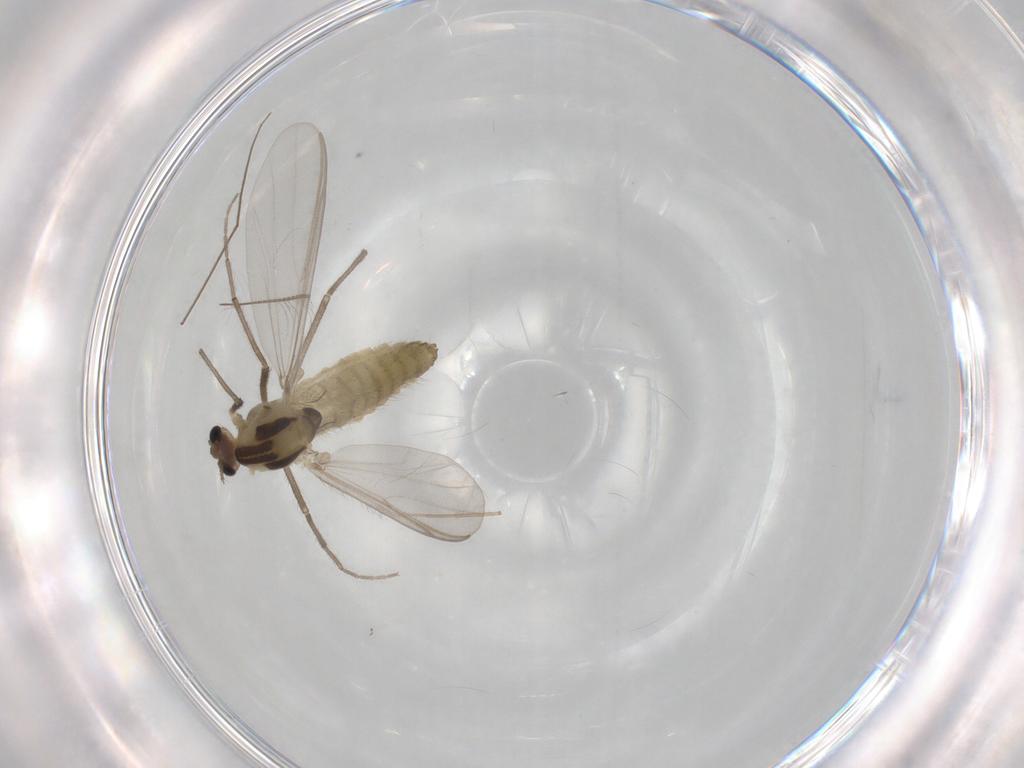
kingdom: Animalia
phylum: Arthropoda
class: Insecta
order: Diptera
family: Chironomidae
